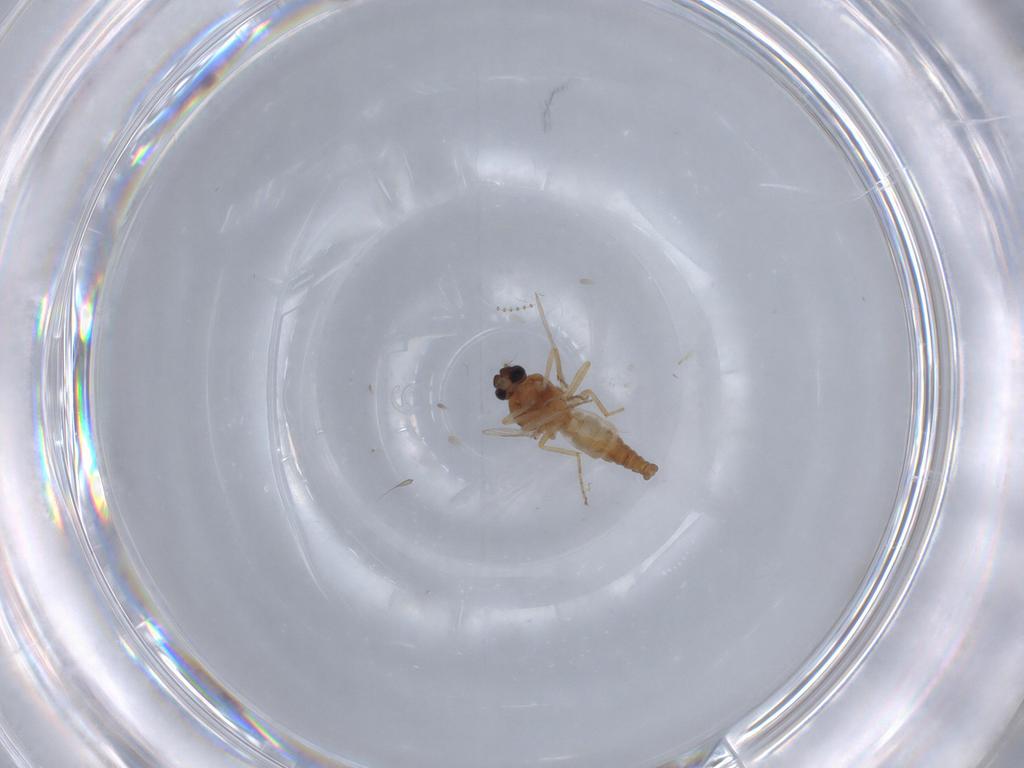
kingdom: Animalia
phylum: Arthropoda
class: Insecta
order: Diptera
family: Ceratopogonidae
